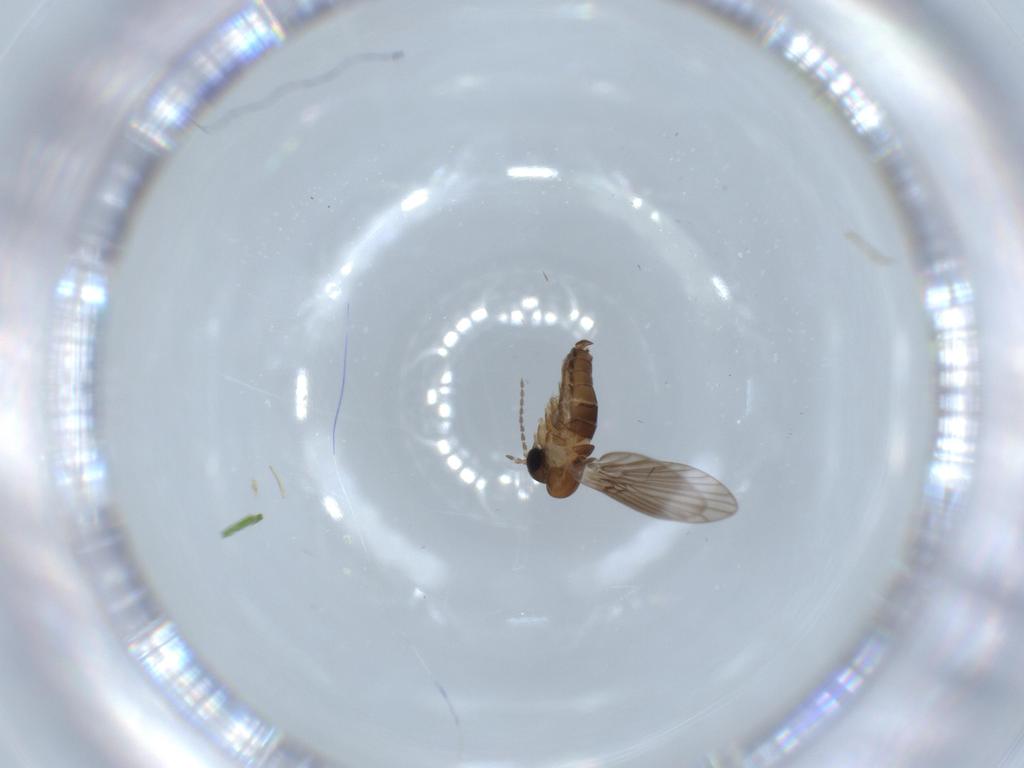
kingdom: Animalia
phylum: Arthropoda
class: Insecta
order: Diptera
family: Psychodidae
